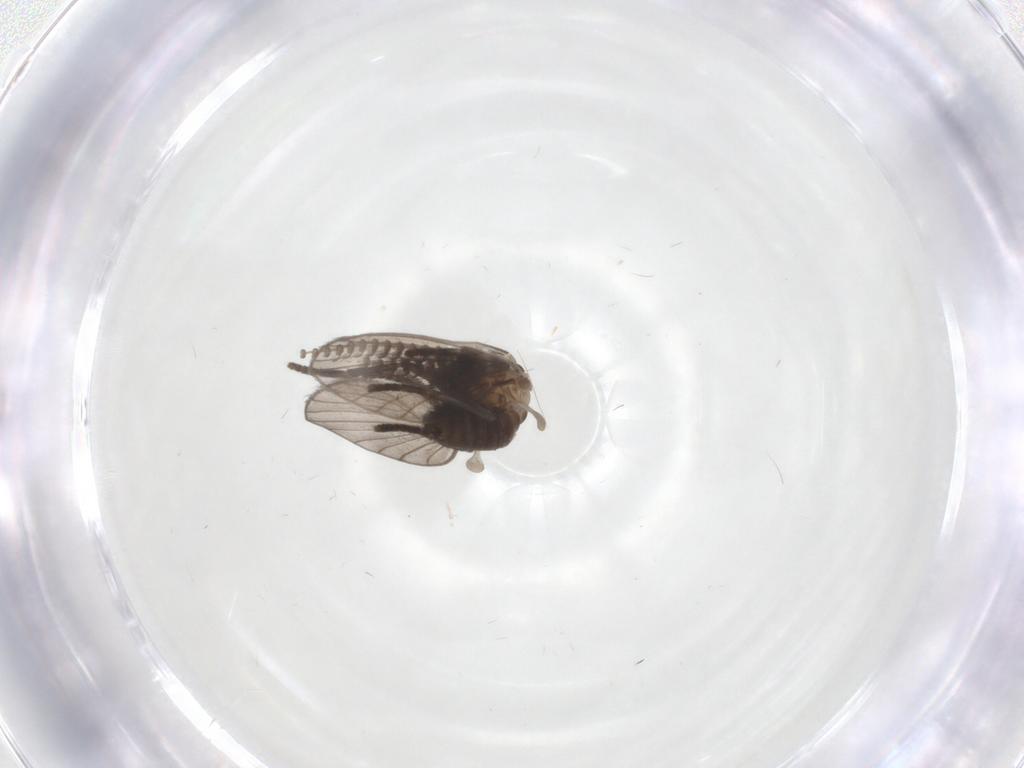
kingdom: Animalia
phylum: Arthropoda
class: Insecta
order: Diptera
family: Psychodidae
